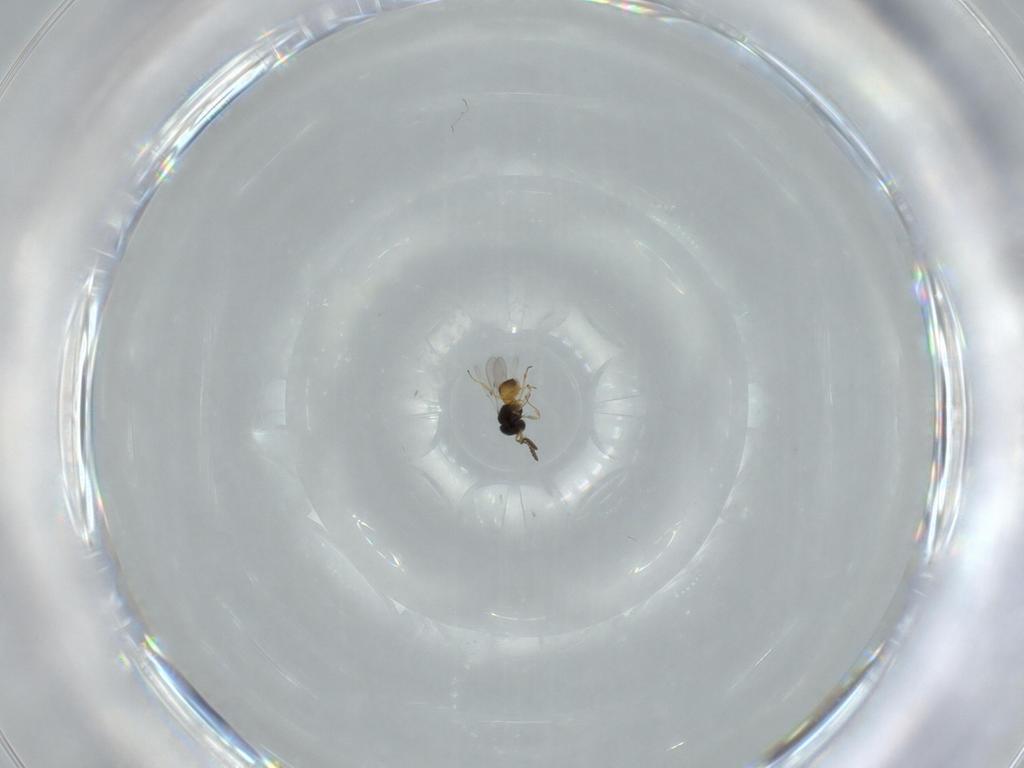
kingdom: Animalia
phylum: Arthropoda
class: Insecta
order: Hymenoptera
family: Scelionidae
